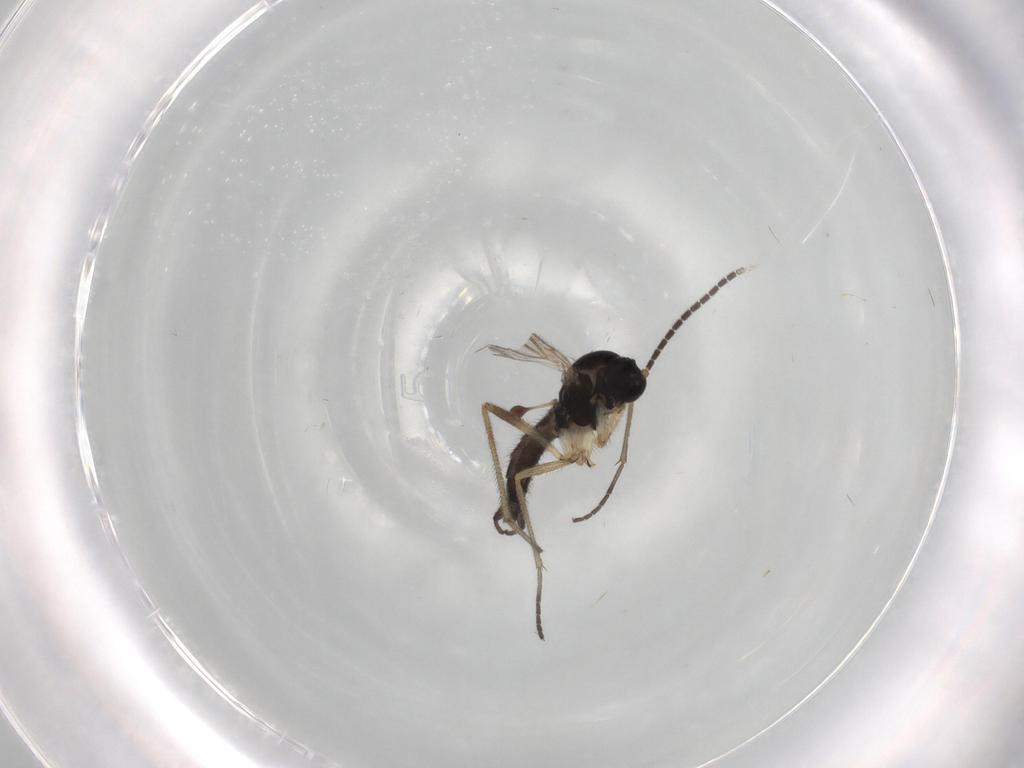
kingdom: Animalia
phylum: Arthropoda
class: Insecta
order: Diptera
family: Sciaridae
